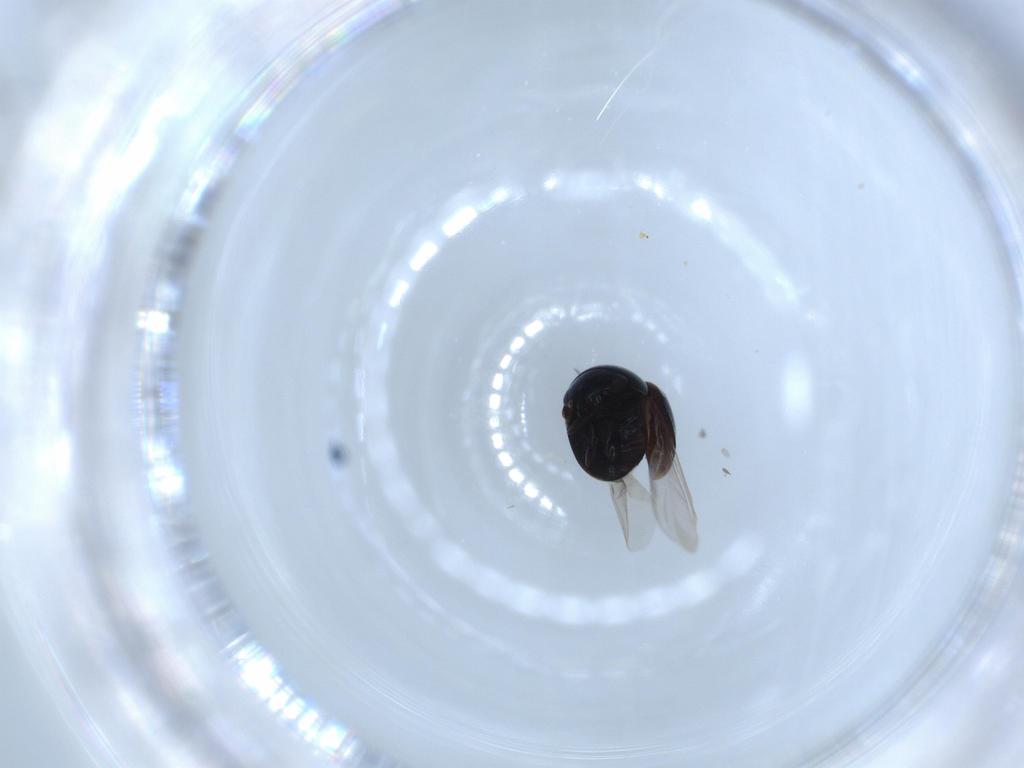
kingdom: Animalia
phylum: Arthropoda
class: Insecta
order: Coleoptera
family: Cybocephalidae
